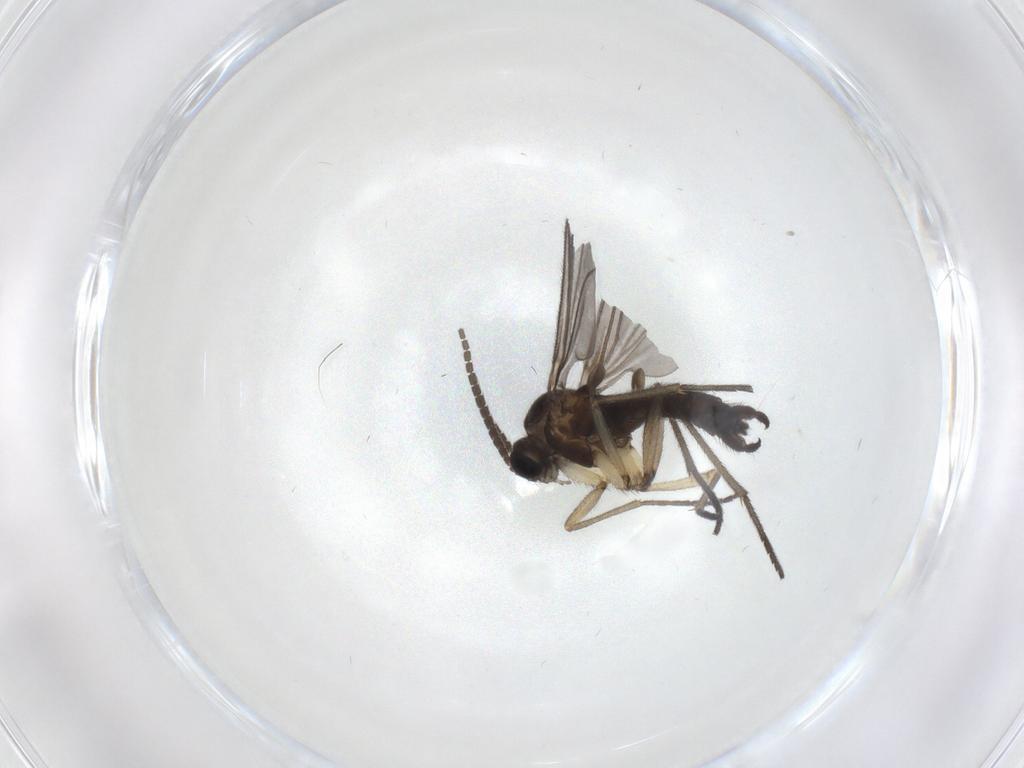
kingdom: Animalia
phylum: Arthropoda
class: Insecta
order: Diptera
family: Sciaridae
